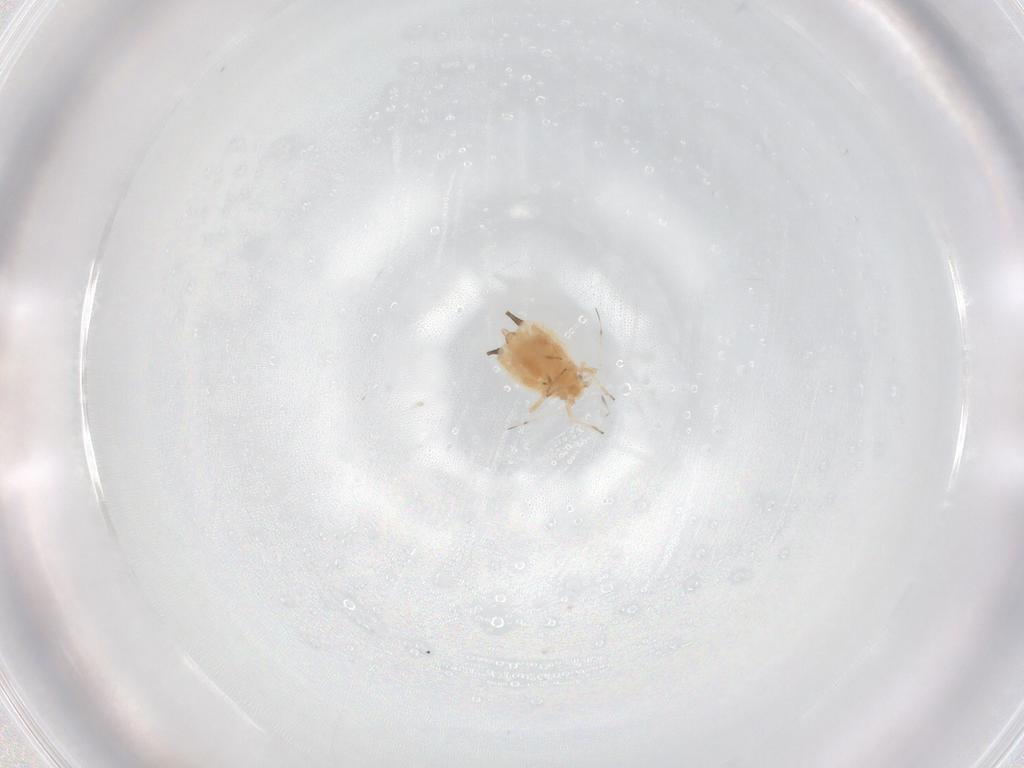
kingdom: Animalia
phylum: Arthropoda
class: Insecta
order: Hemiptera
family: Aphididae
